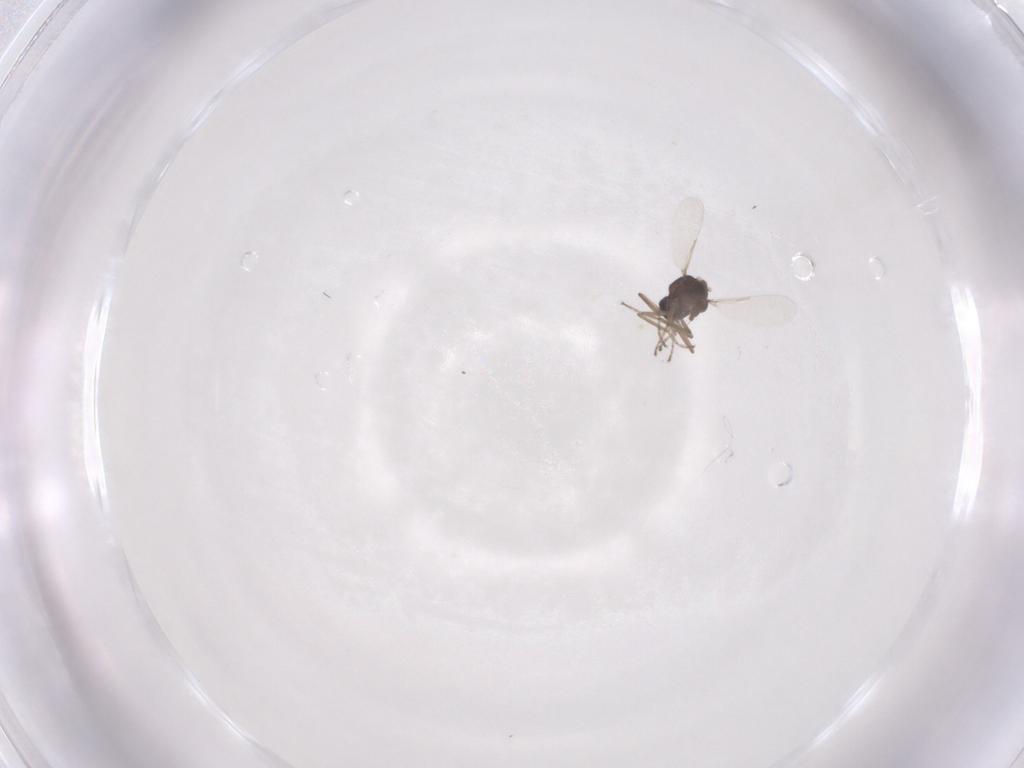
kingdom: Animalia
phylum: Arthropoda
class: Insecta
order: Diptera
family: Ceratopogonidae
